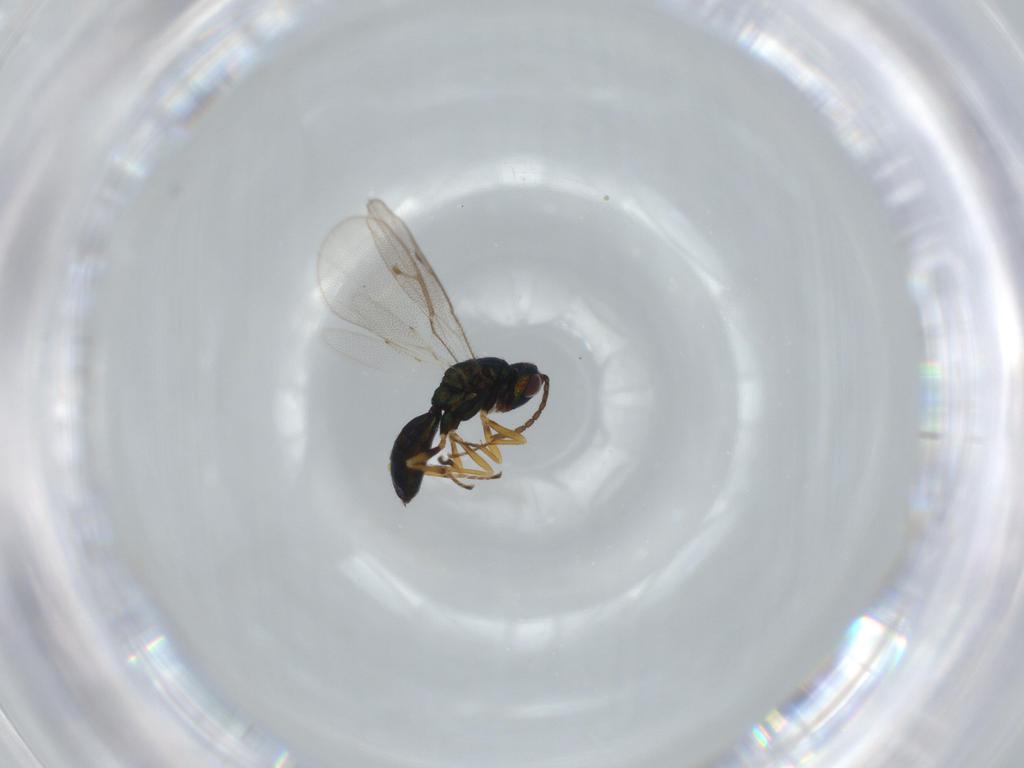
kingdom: Animalia
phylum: Arthropoda
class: Insecta
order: Hymenoptera
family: Pteromalidae
